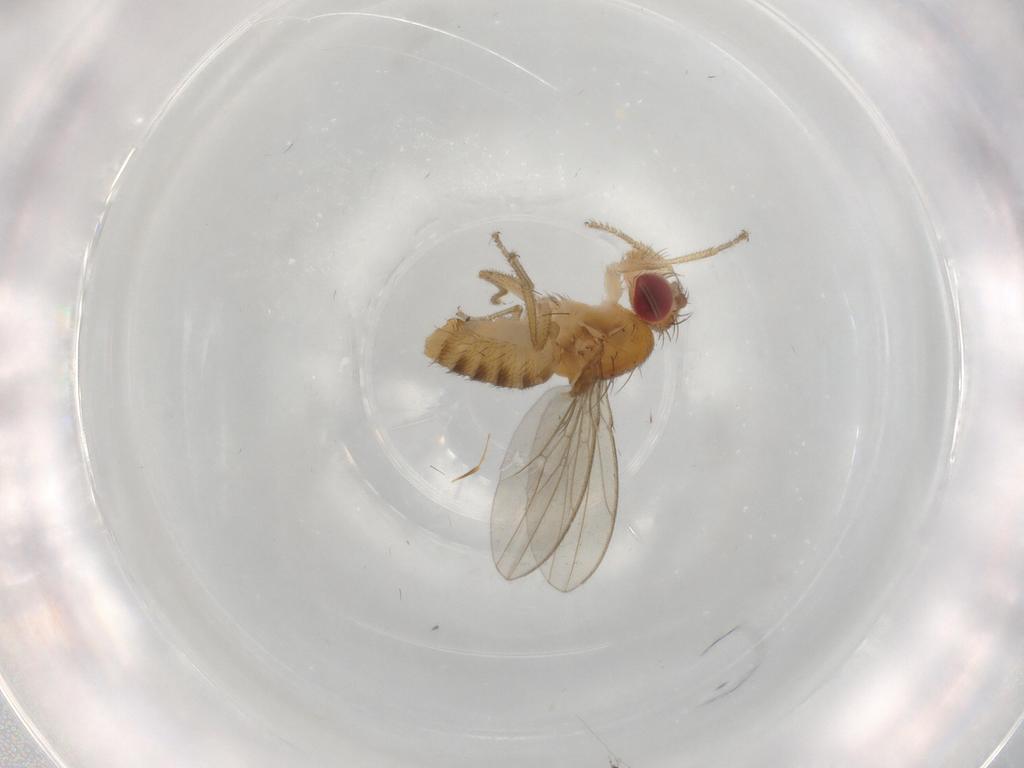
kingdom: Animalia
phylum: Arthropoda
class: Insecta
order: Diptera
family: Drosophilidae
